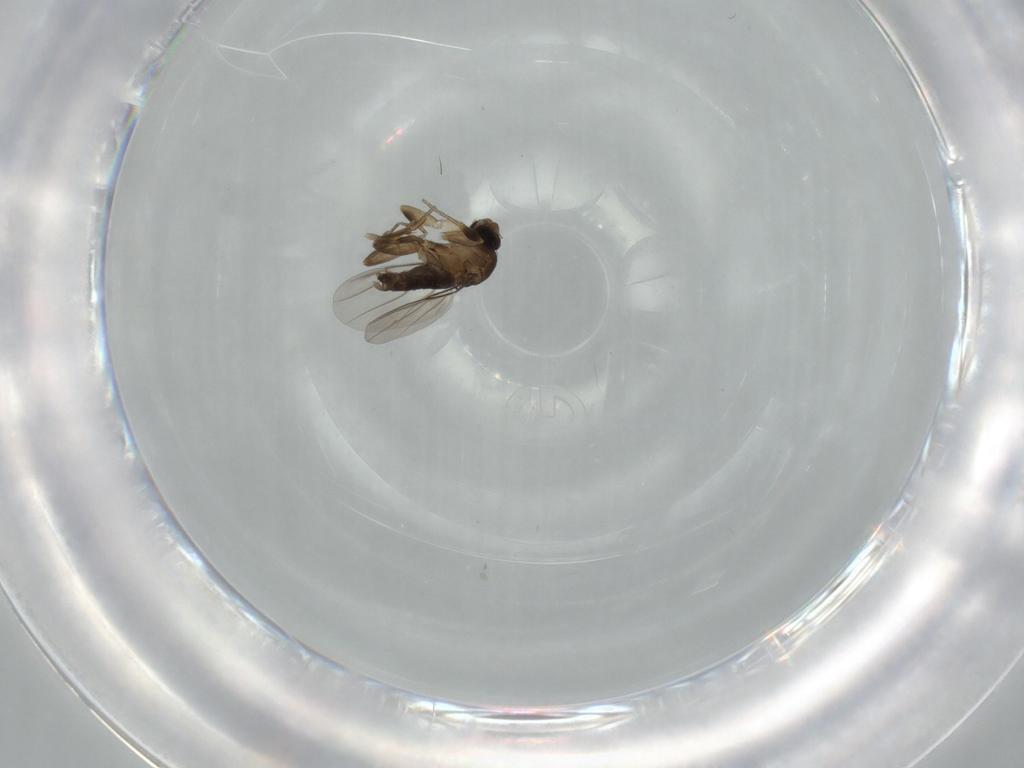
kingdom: Animalia
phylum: Arthropoda
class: Insecta
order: Diptera
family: Phoridae
